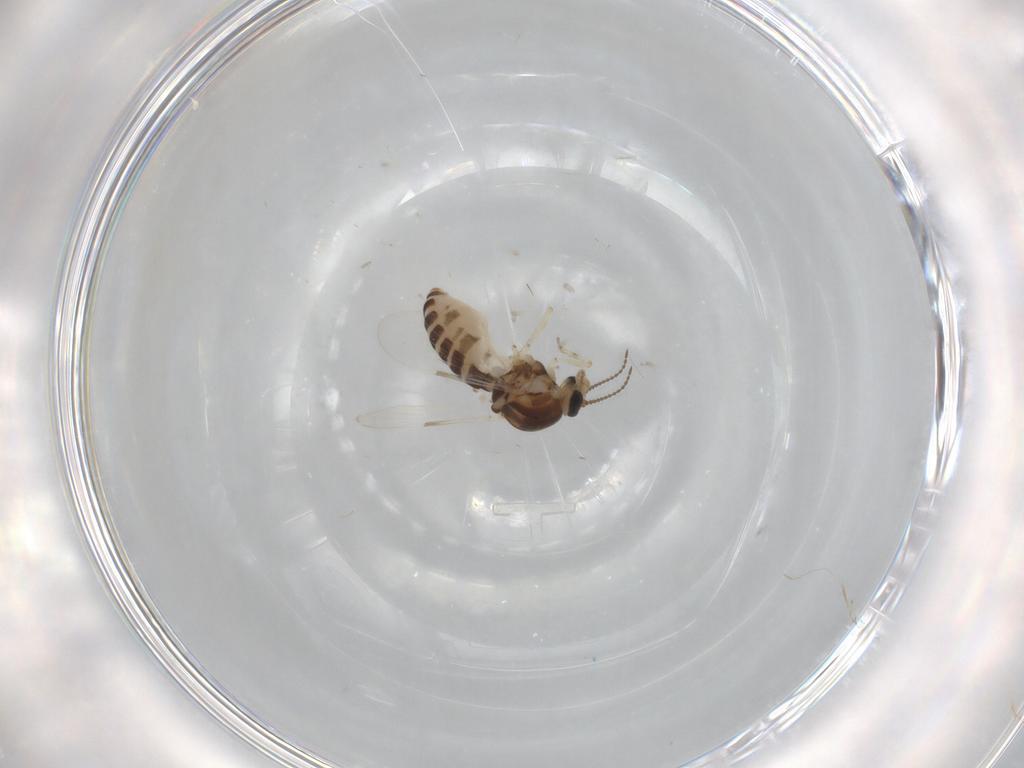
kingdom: Animalia
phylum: Arthropoda
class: Insecta
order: Diptera
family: Ceratopogonidae
